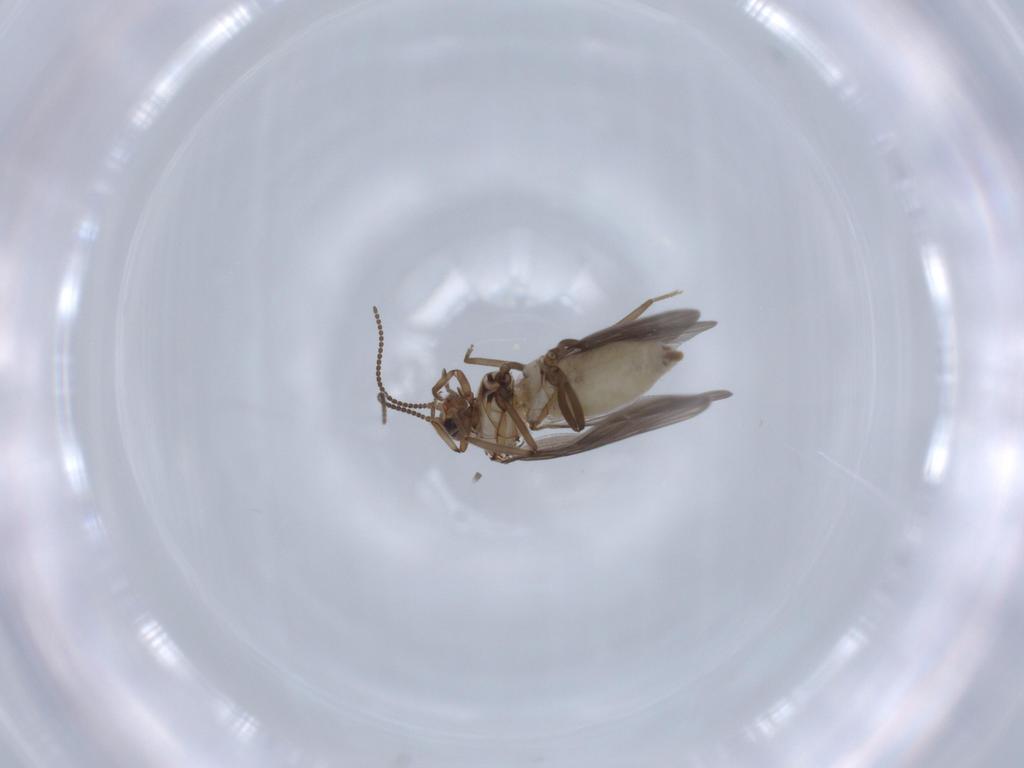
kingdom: Animalia
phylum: Arthropoda
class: Insecta
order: Neuroptera
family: Coniopterygidae
